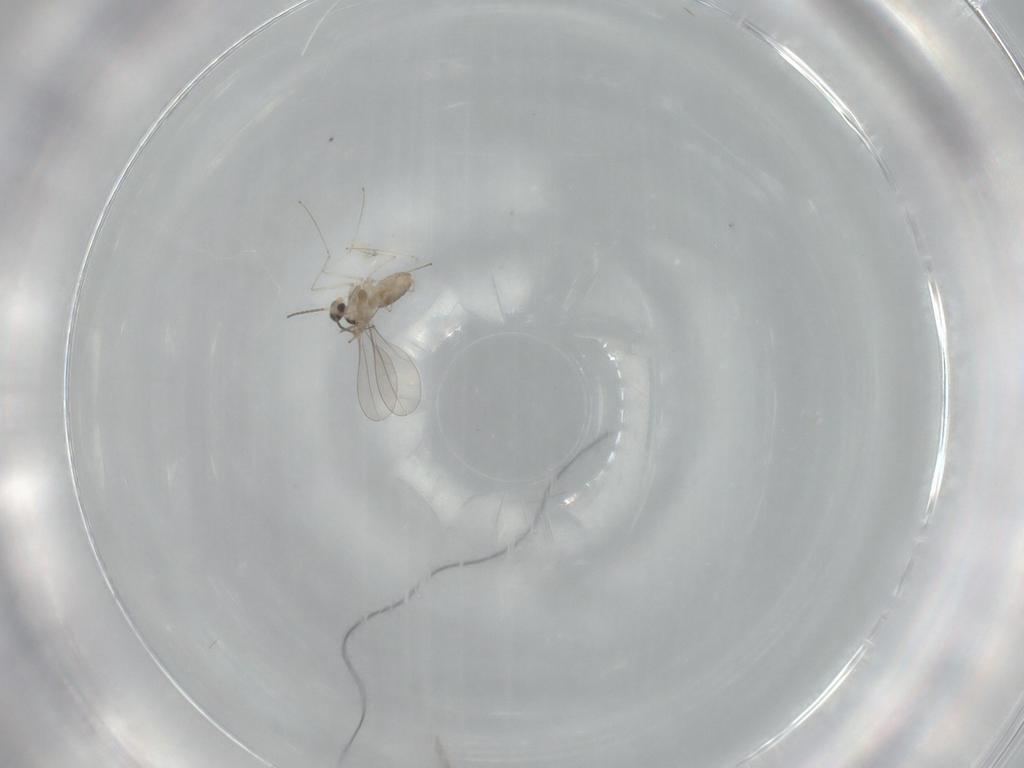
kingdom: Animalia
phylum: Arthropoda
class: Insecta
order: Diptera
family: Cecidomyiidae
